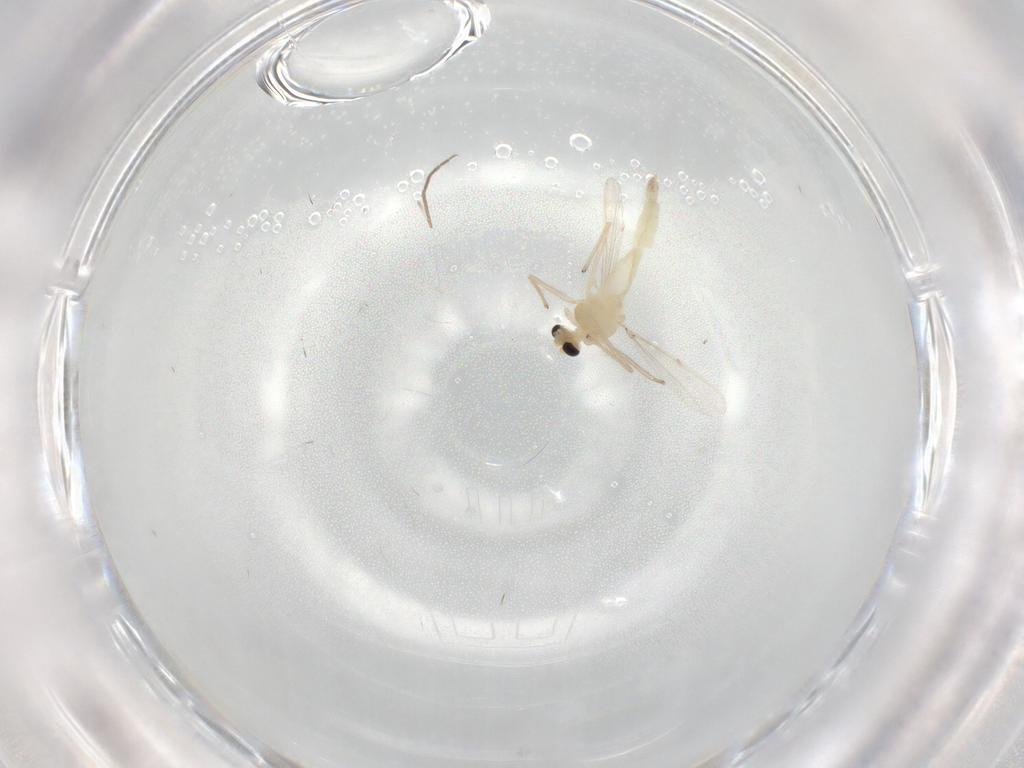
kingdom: Animalia
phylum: Arthropoda
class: Insecta
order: Diptera
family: Chironomidae
